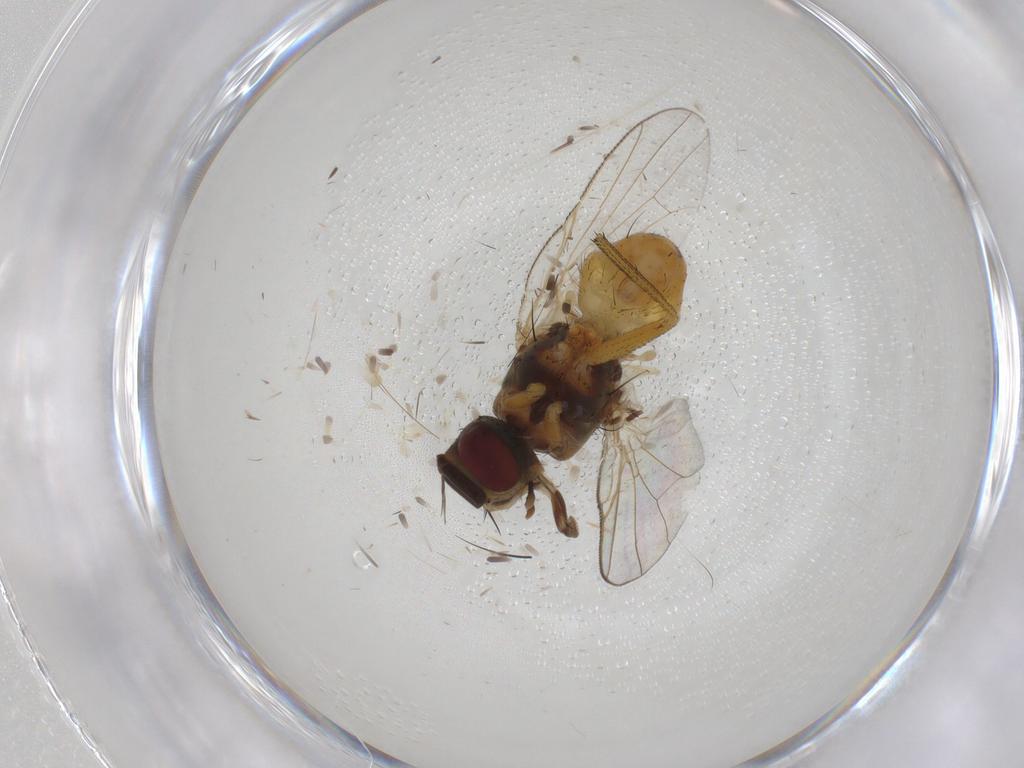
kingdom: Animalia
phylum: Arthropoda
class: Insecta
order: Diptera
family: Muscidae
